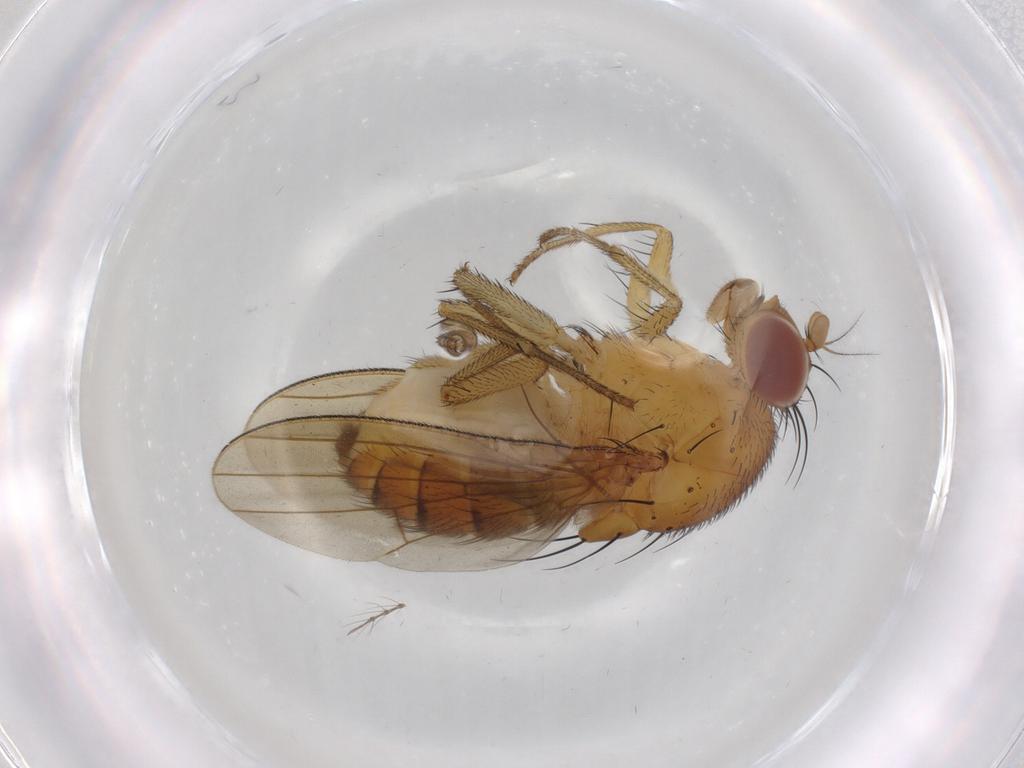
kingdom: Animalia
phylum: Arthropoda
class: Insecta
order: Diptera
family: Chironomidae
